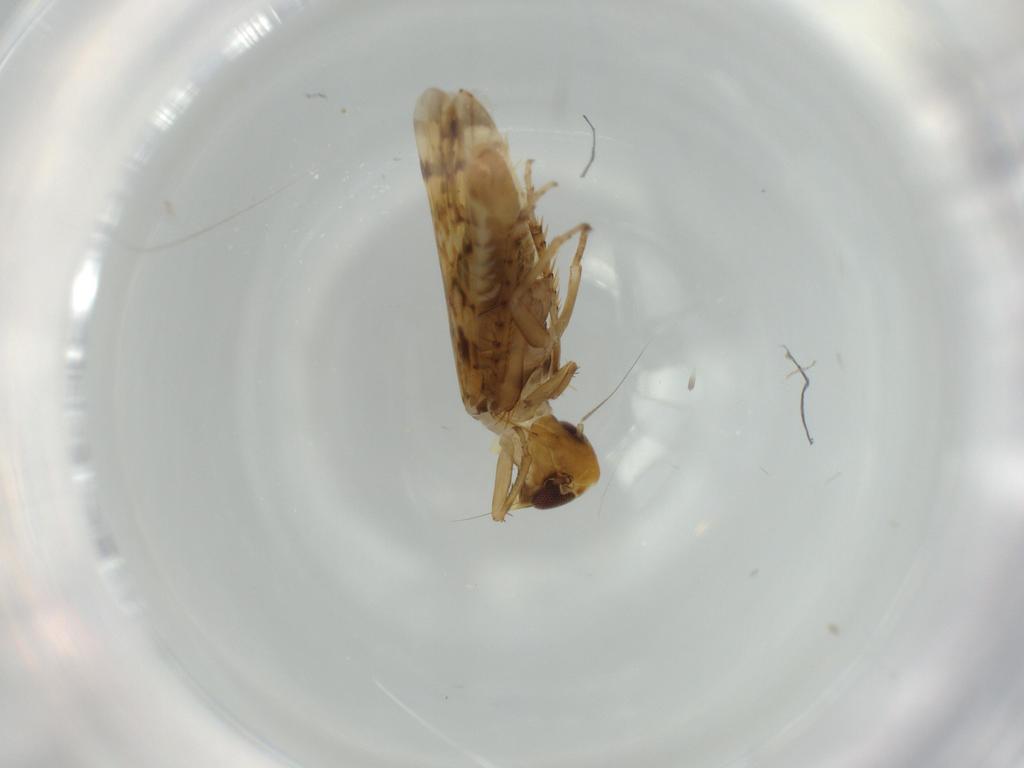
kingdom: Animalia
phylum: Arthropoda
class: Insecta
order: Hemiptera
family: Cicadellidae
